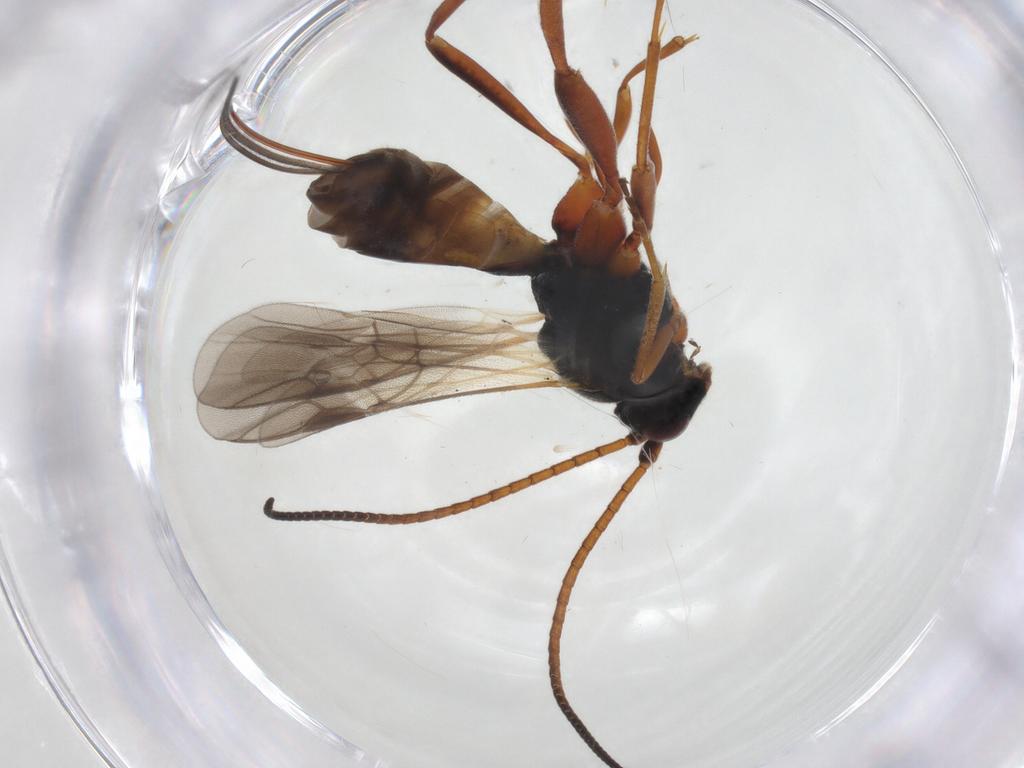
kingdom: Animalia
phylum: Arthropoda
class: Insecta
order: Hymenoptera
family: Braconidae
